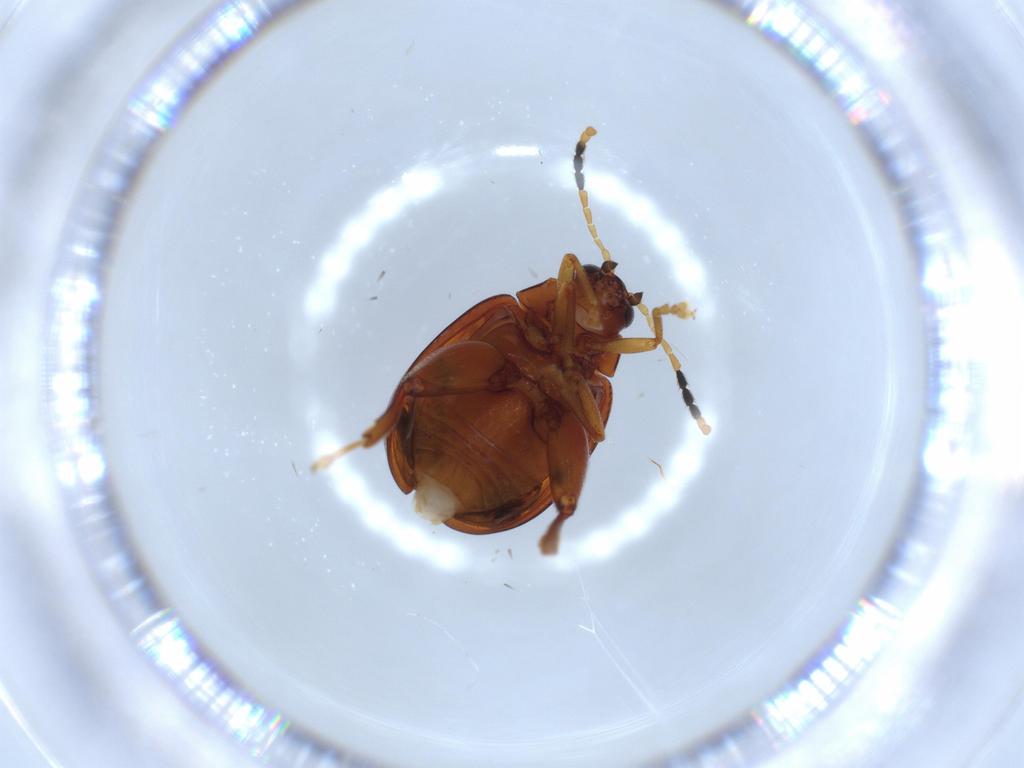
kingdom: Animalia
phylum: Arthropoda
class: Insecta
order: Coleoptera
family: Chrysomelidae
